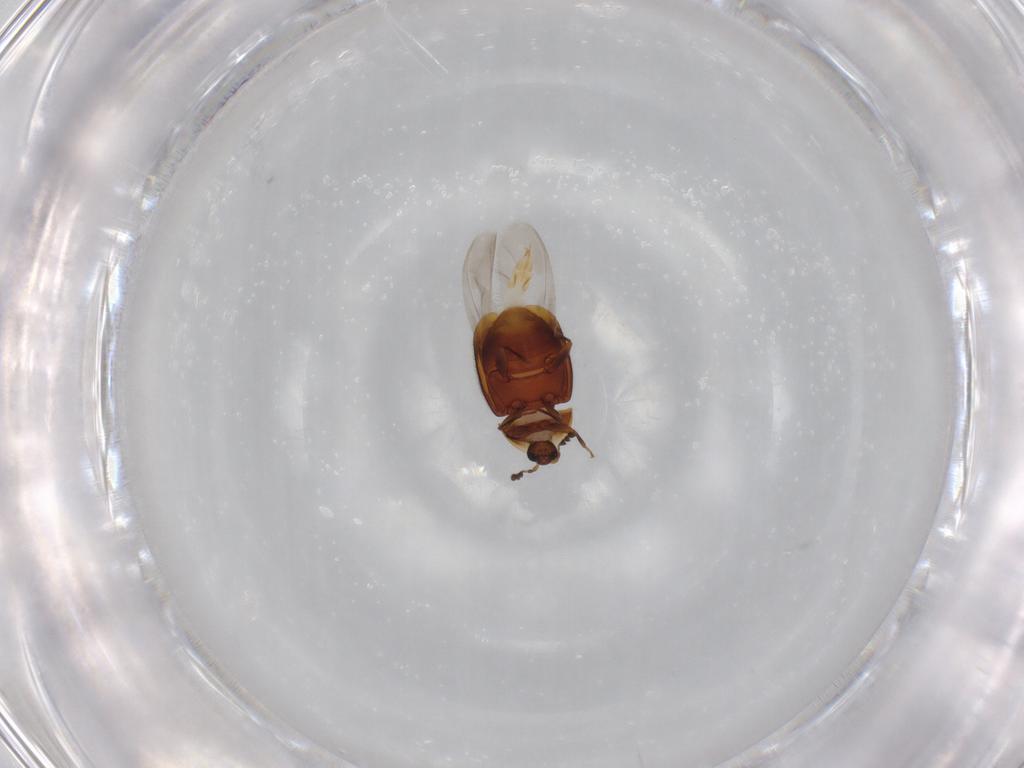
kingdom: Animalia
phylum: Arthropoda
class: Insecta
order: Coleoptera
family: Corylophidae
